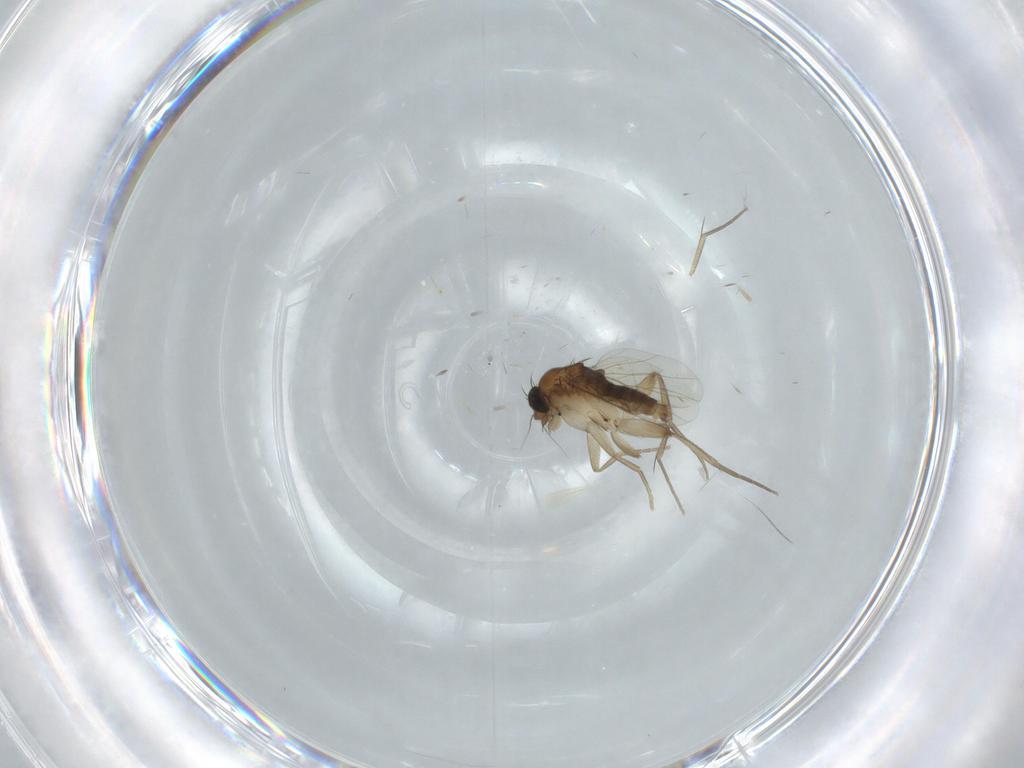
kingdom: Animalia
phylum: Arthropoda
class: Insecta
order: Diptera
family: Phoridae
